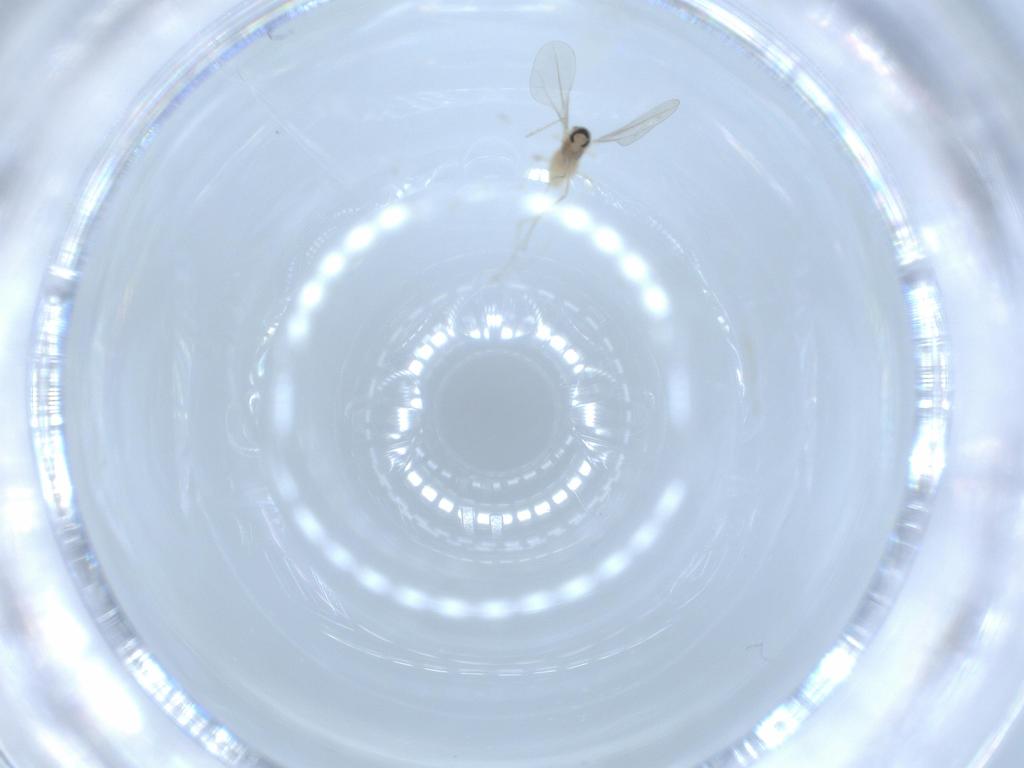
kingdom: Animalia
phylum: Arthropoda
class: Insecta
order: Diptera
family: Cecidomyiidae
